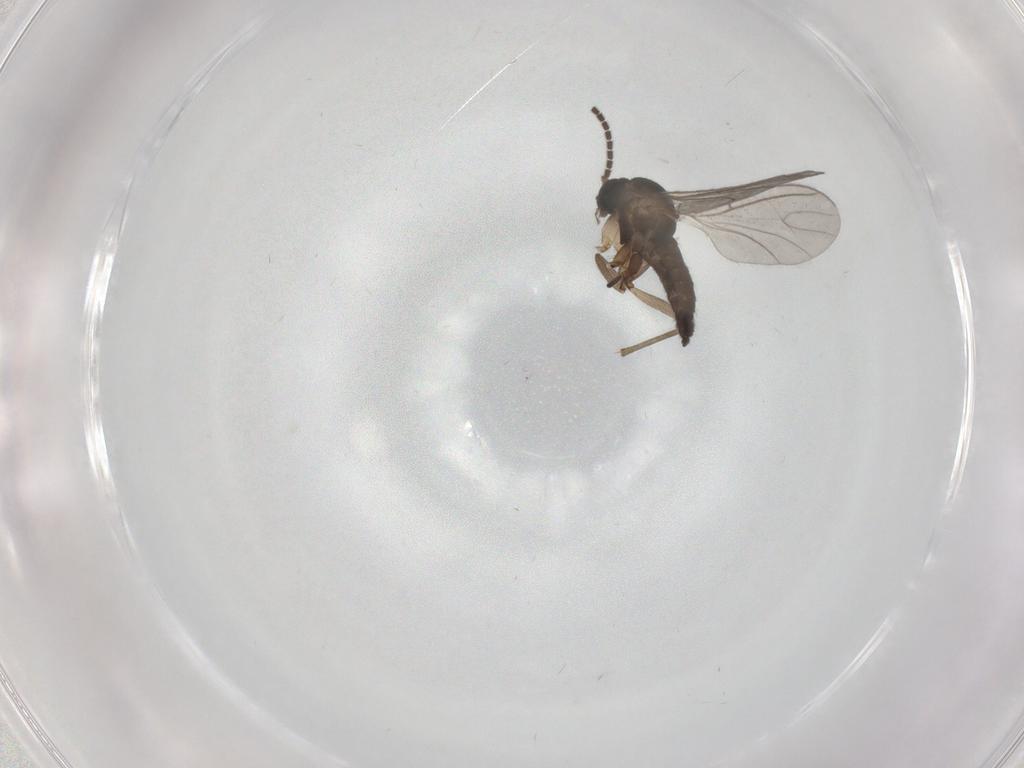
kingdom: Animalia
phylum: Arthropoda
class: Insecta
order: Diptera
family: Sciaridae
